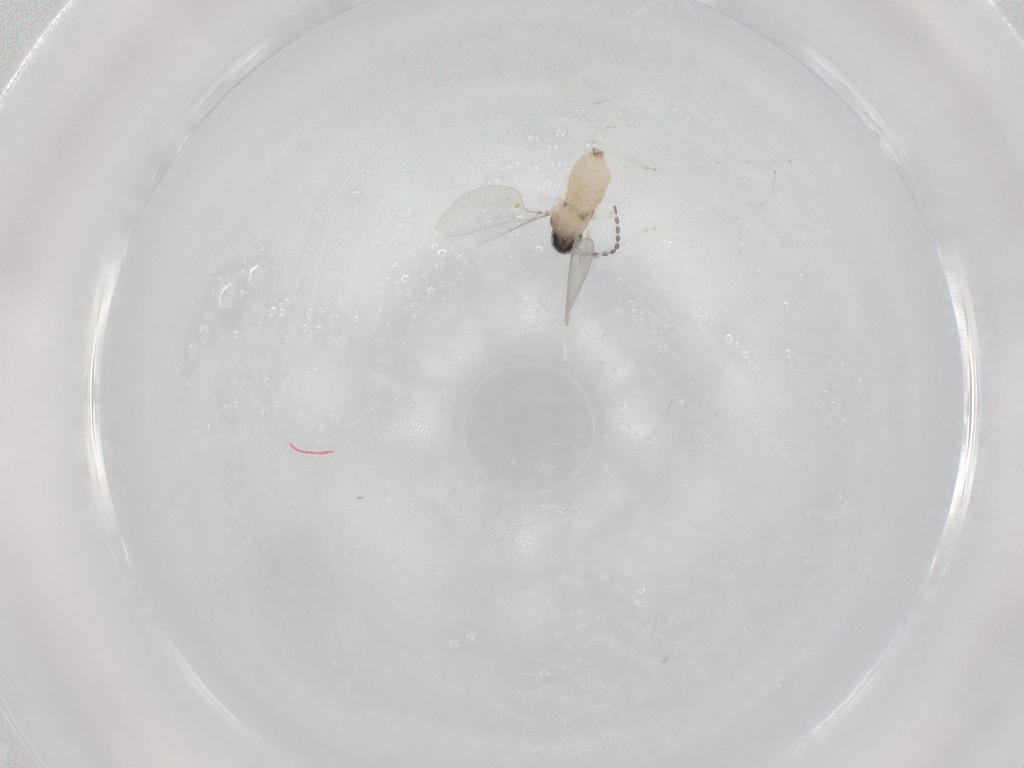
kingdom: Animalia
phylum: Arthropoda
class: Insecta
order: Diptera
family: Cecidomyiidae
